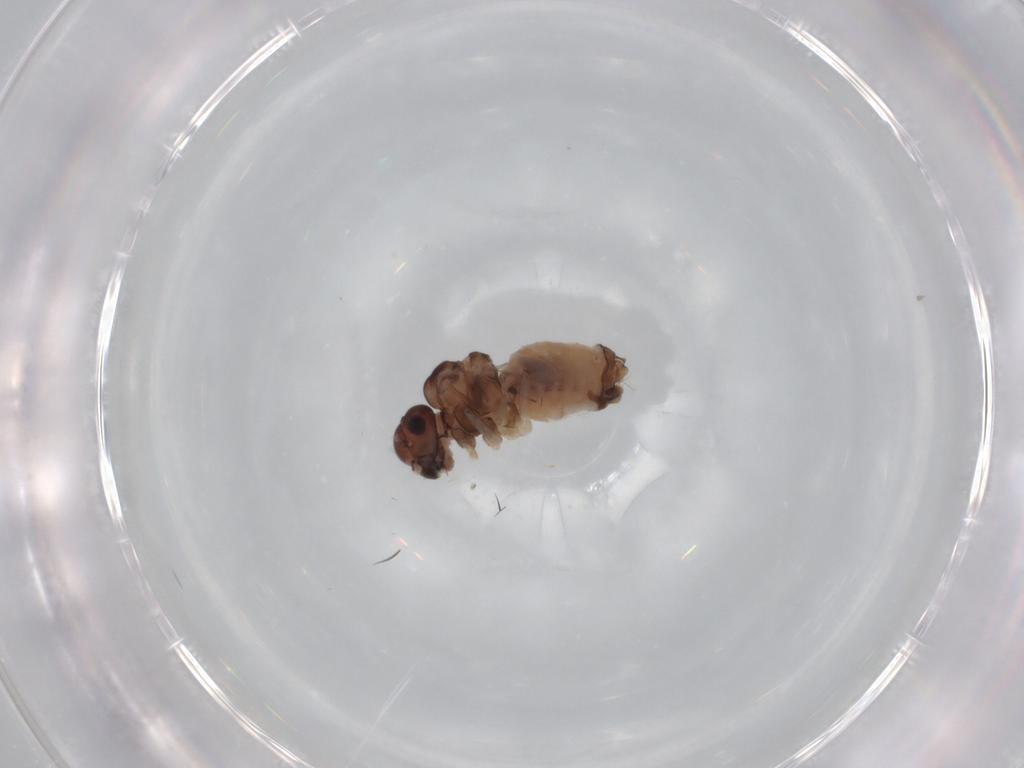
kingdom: Animalia
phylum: Arthropoda
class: Insecta
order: Psocodea
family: Peripsocidae
